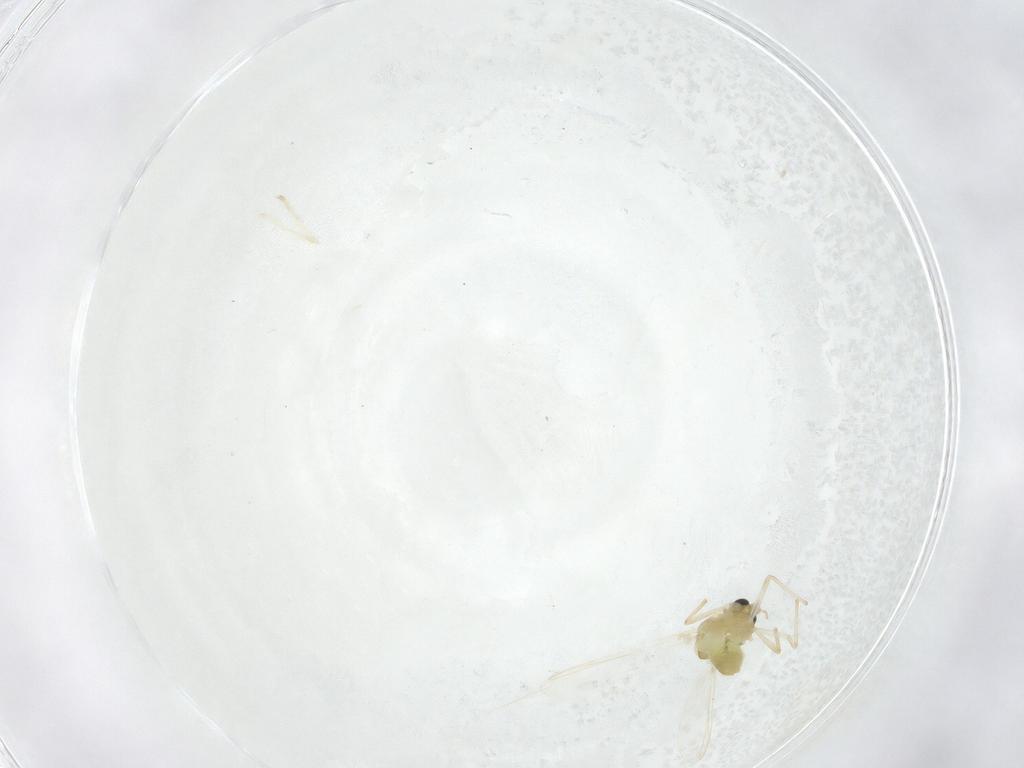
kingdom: Animalia
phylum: Arthropoda
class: Insecta
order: Diptera
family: Chironomidae
